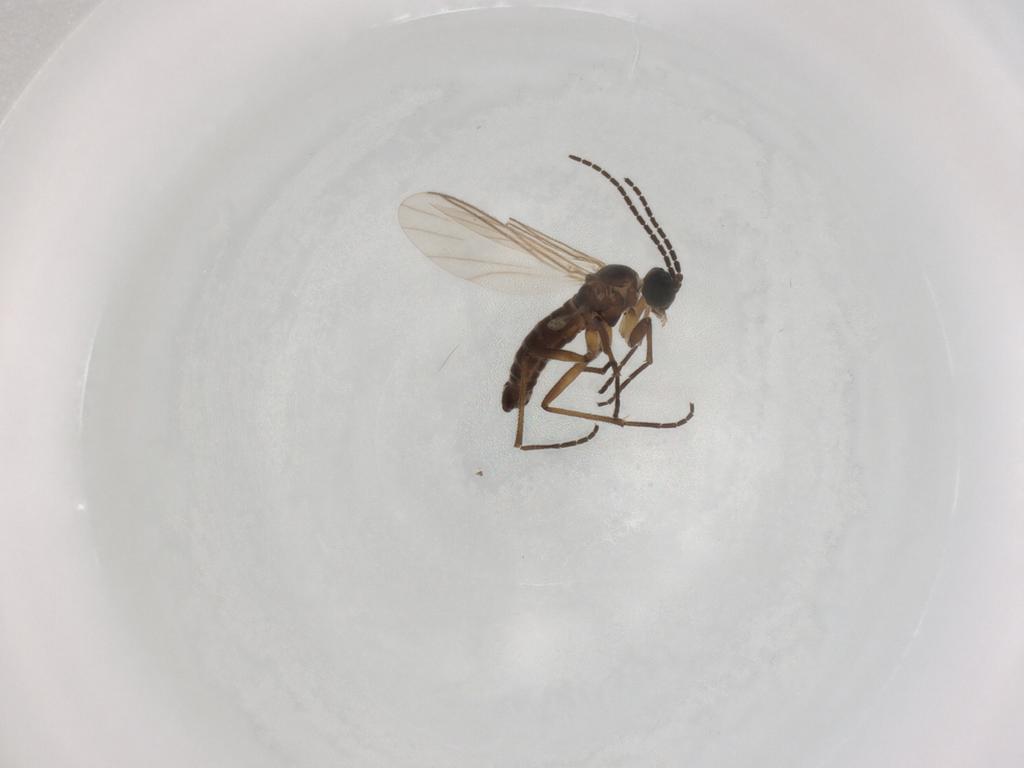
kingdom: Animalia
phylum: Arthropoda
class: Insecta
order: Diptera
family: Sciaridae
